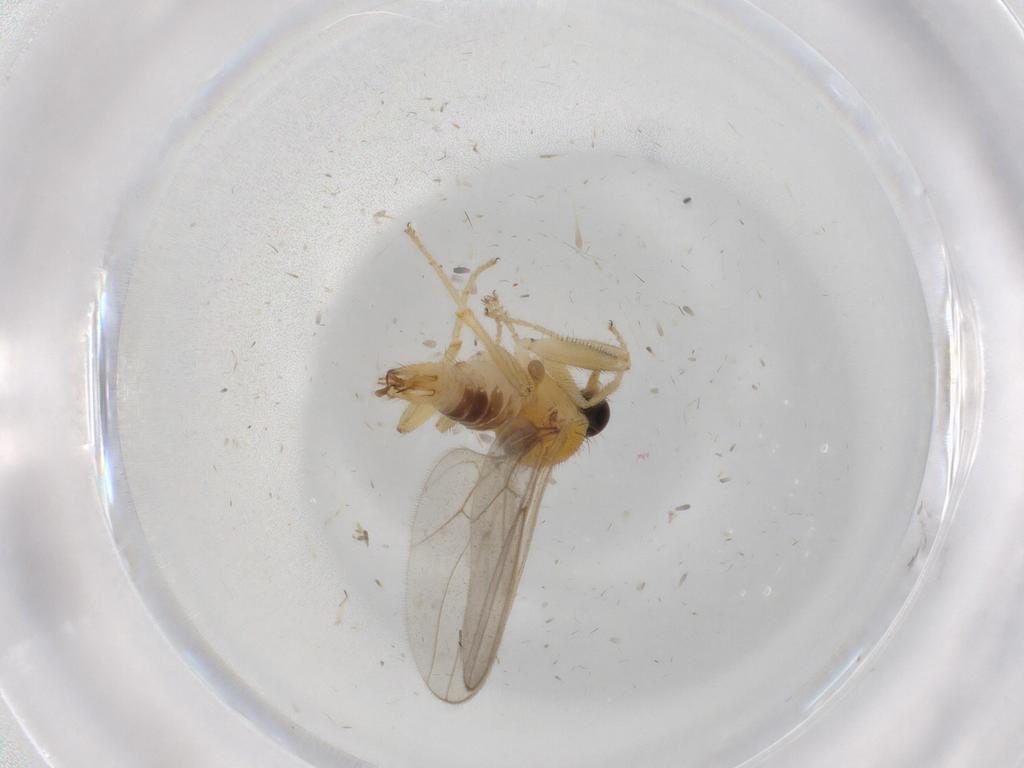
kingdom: Animalia
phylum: Arthropoda
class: Insecta
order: Diptera
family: Hybotidae
